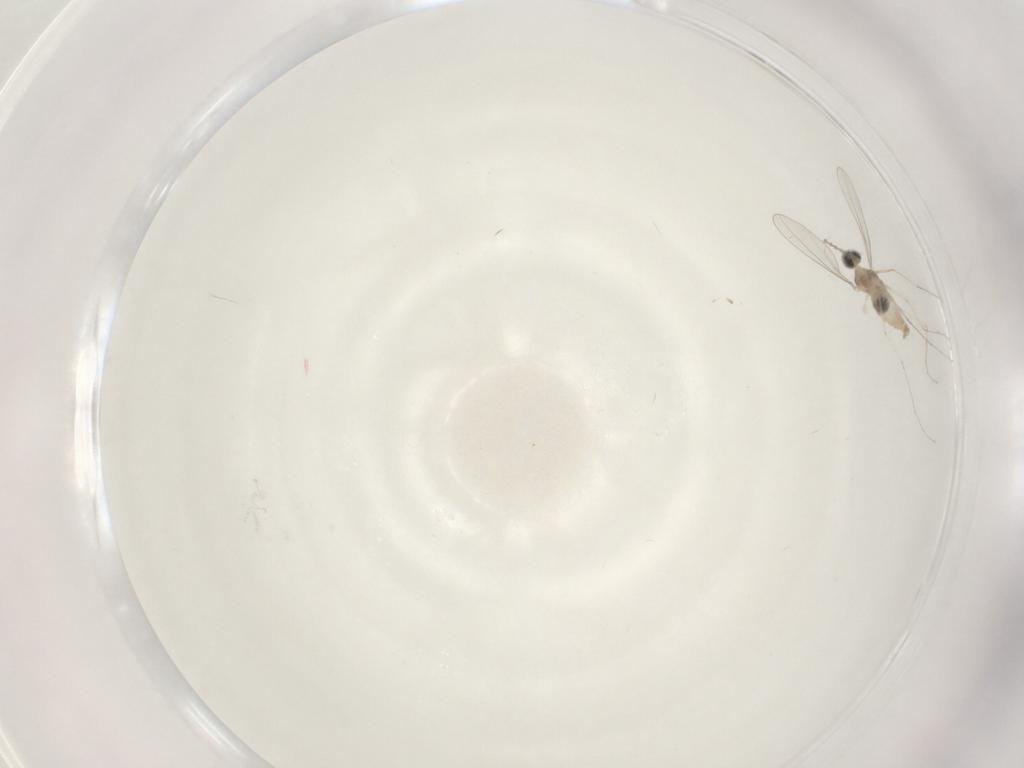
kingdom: Animalia
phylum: Arthropoda
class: Insecta
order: Diptera
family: Cecidomyiidae
